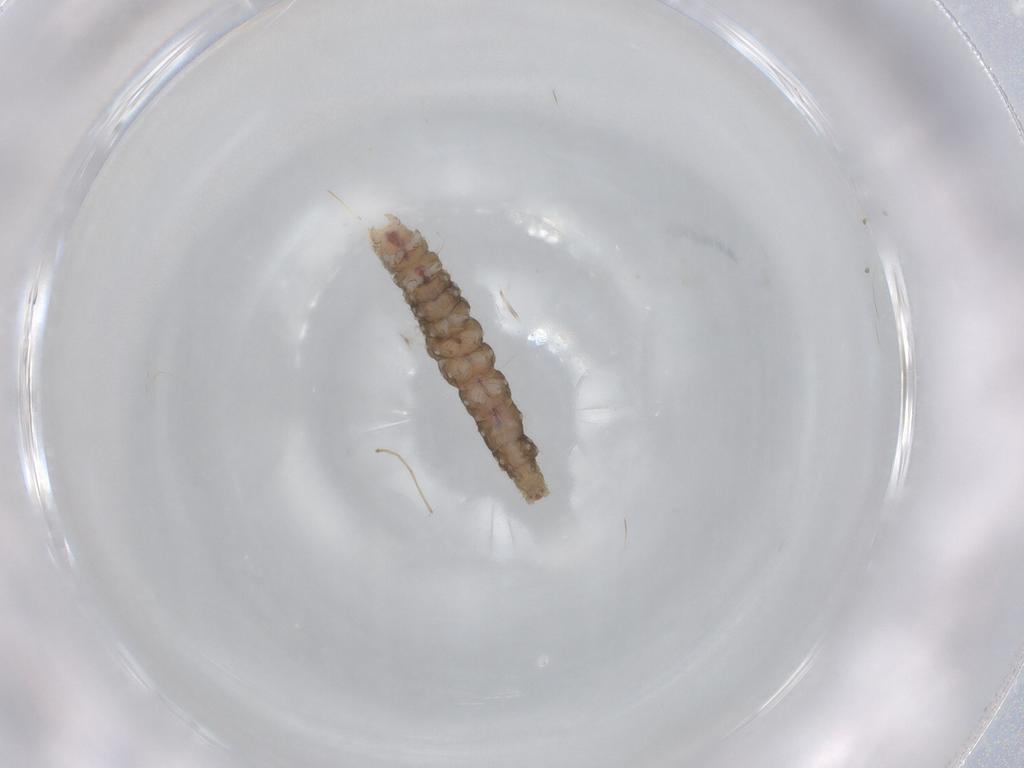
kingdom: Animalia
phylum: Arthropoda
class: Insecta
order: Lepidoptera
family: Bucculatricidae
